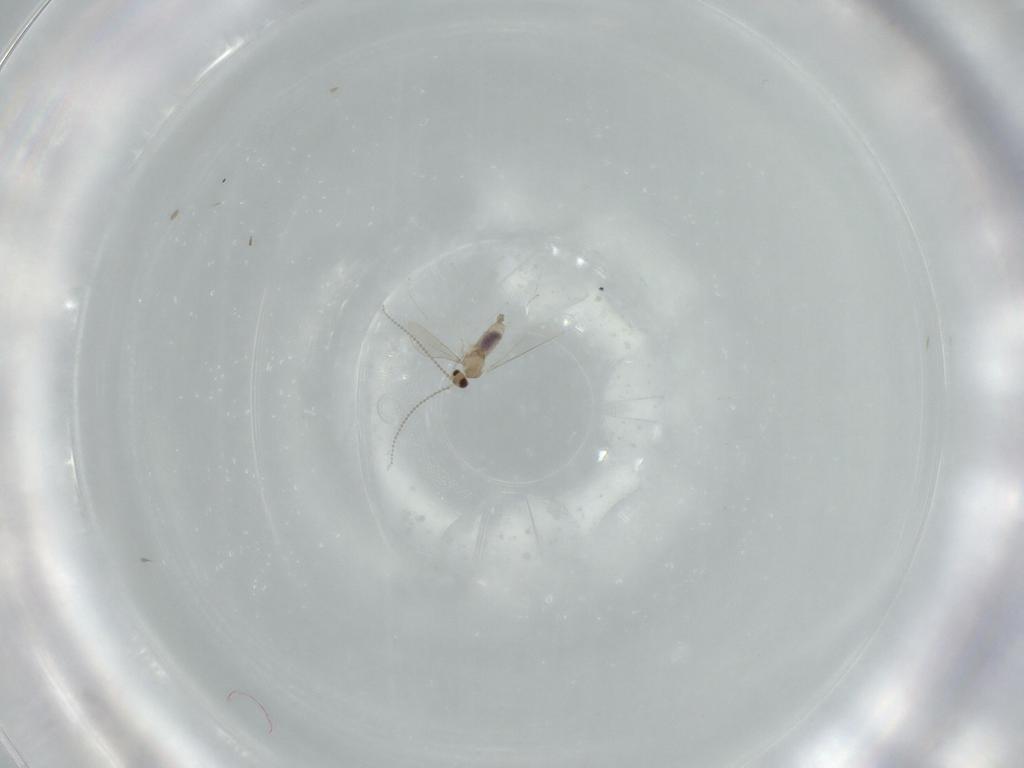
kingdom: Animalia
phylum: Arthropoda
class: Insecta
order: Diptera
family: Cecidomyiidae
